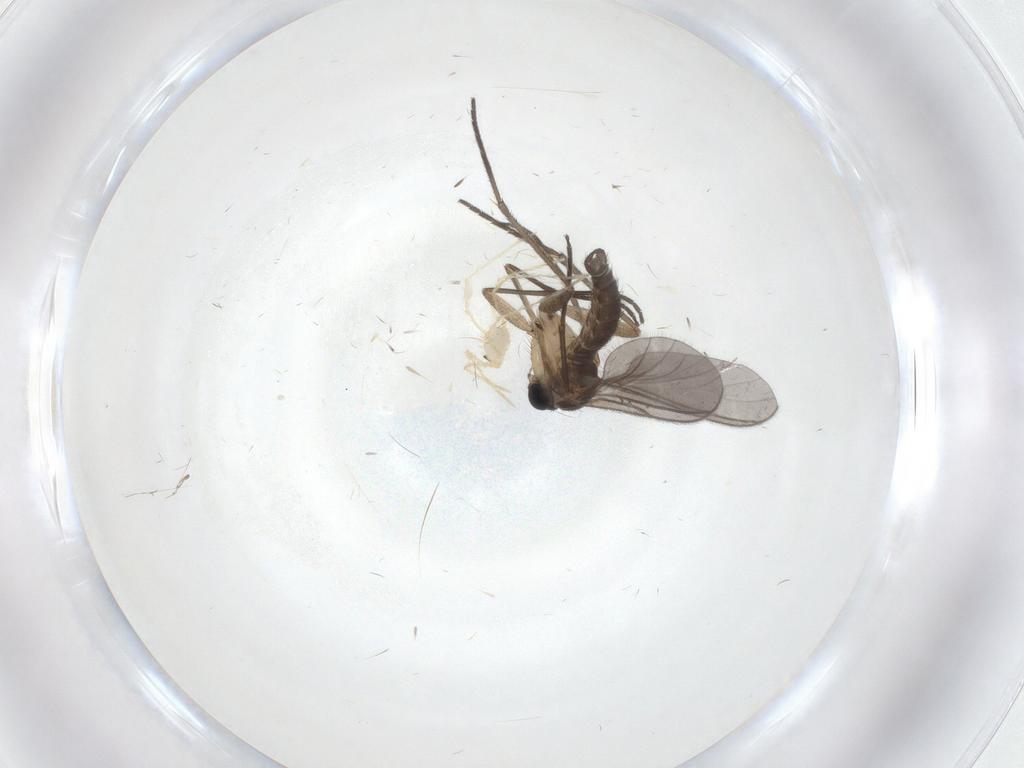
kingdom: Animalia
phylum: Arthropoda
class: Insecta
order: Diptera
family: Sciaridae
